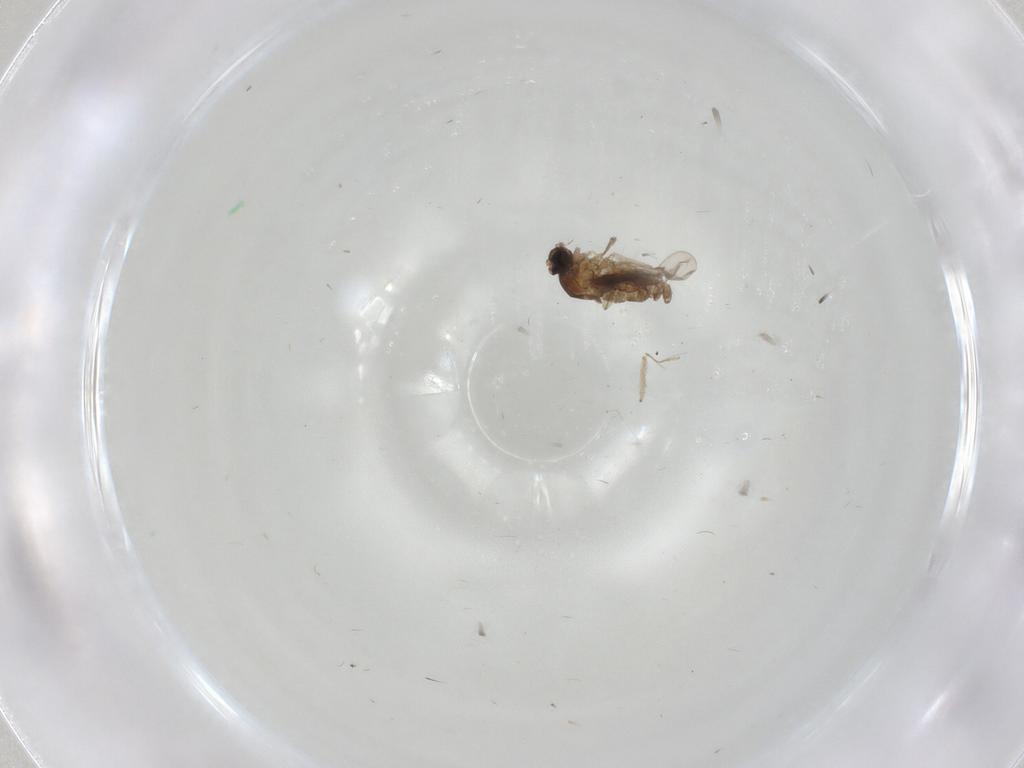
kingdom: Animalia
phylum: Arthropoda
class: Insecta
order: Diptera
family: Cecidomyiidae
